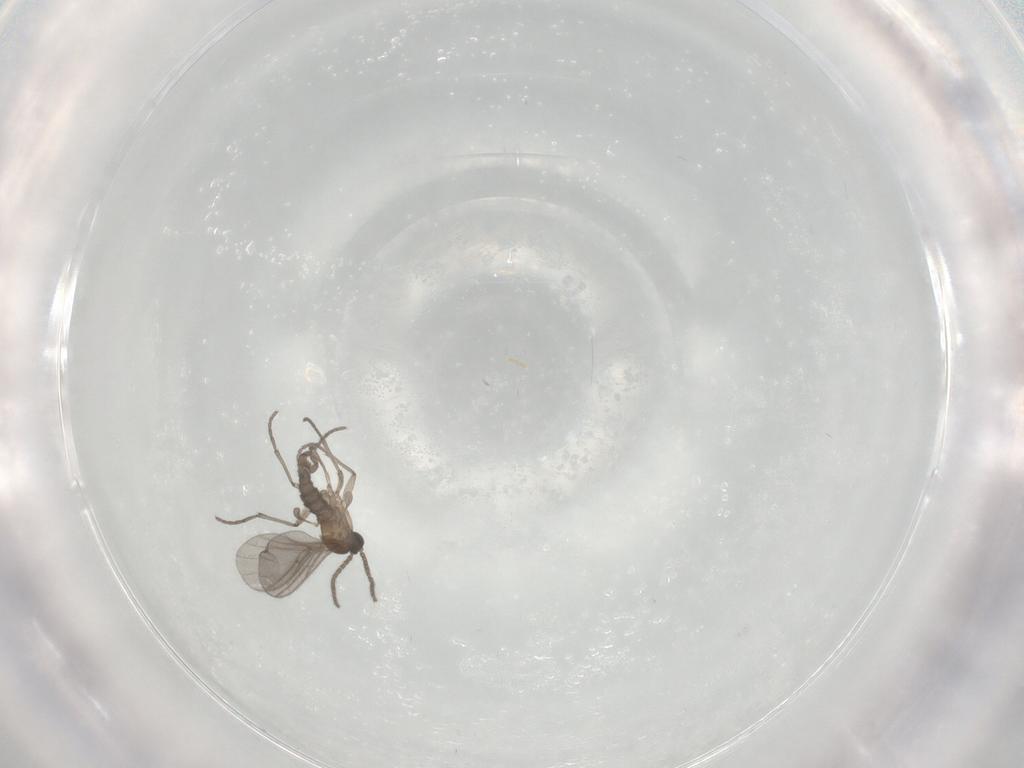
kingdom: Animalia
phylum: Arthropoda
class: Insecta
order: Diptera
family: Sciaridae
